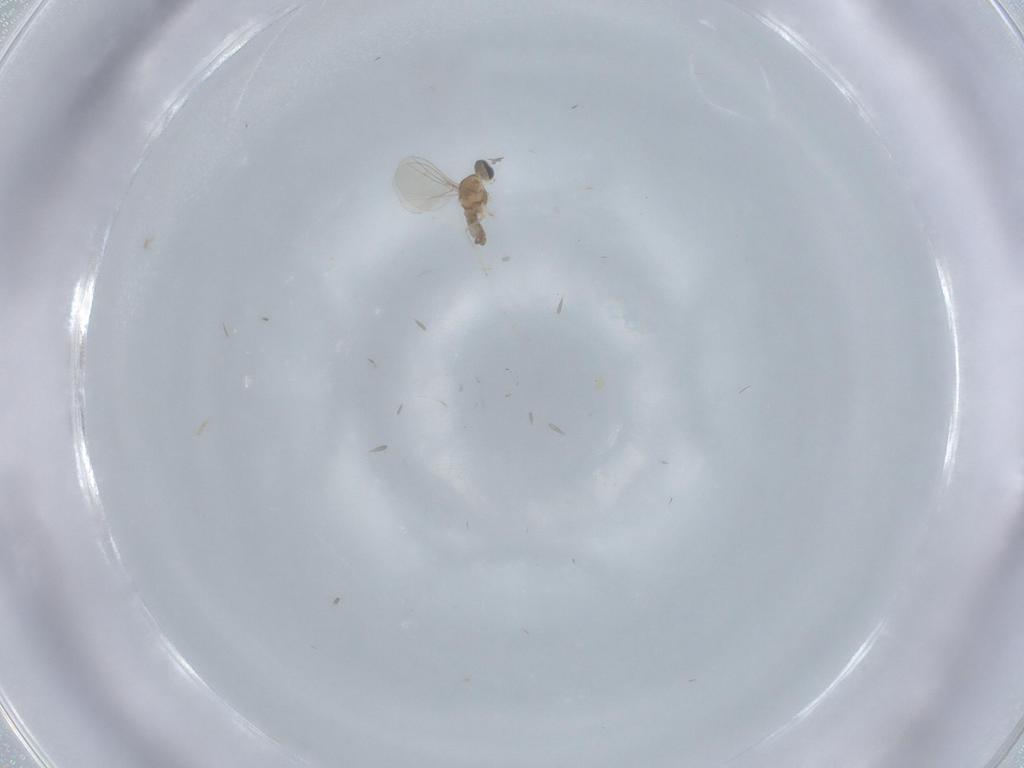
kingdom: Animalia
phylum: Arthropoda
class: Insecta
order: Diptera
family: Cecidomyiidae
